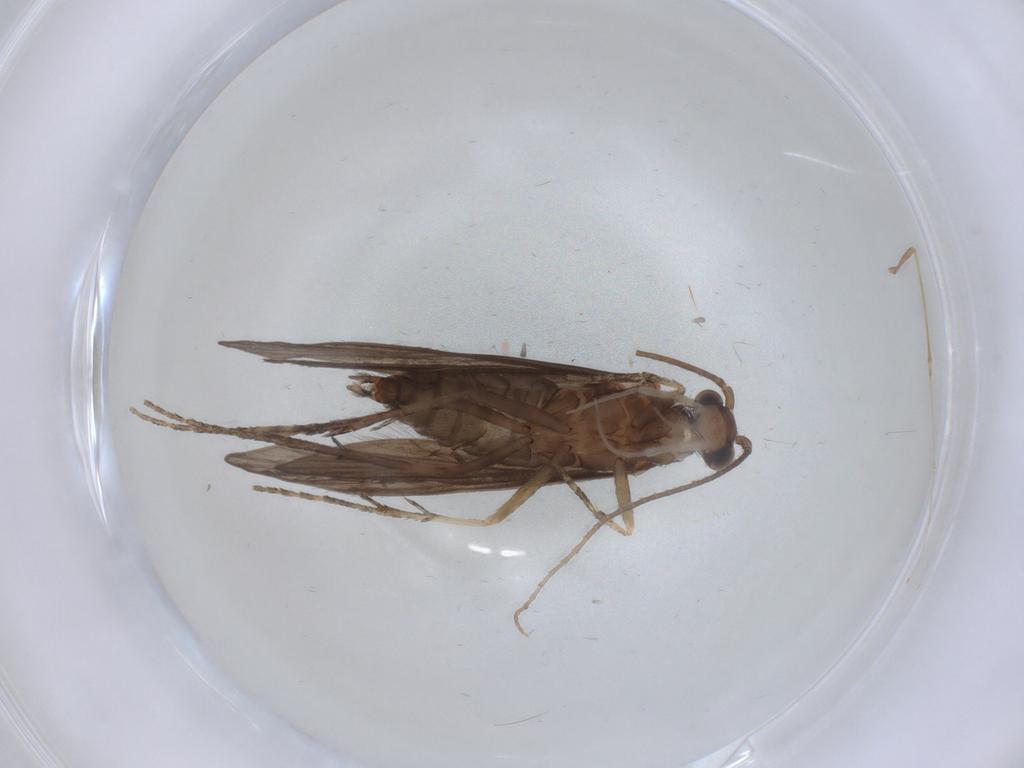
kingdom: Animalia
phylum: Arthropoda
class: Insecta
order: Trichoptera
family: Xiphocentronidae
